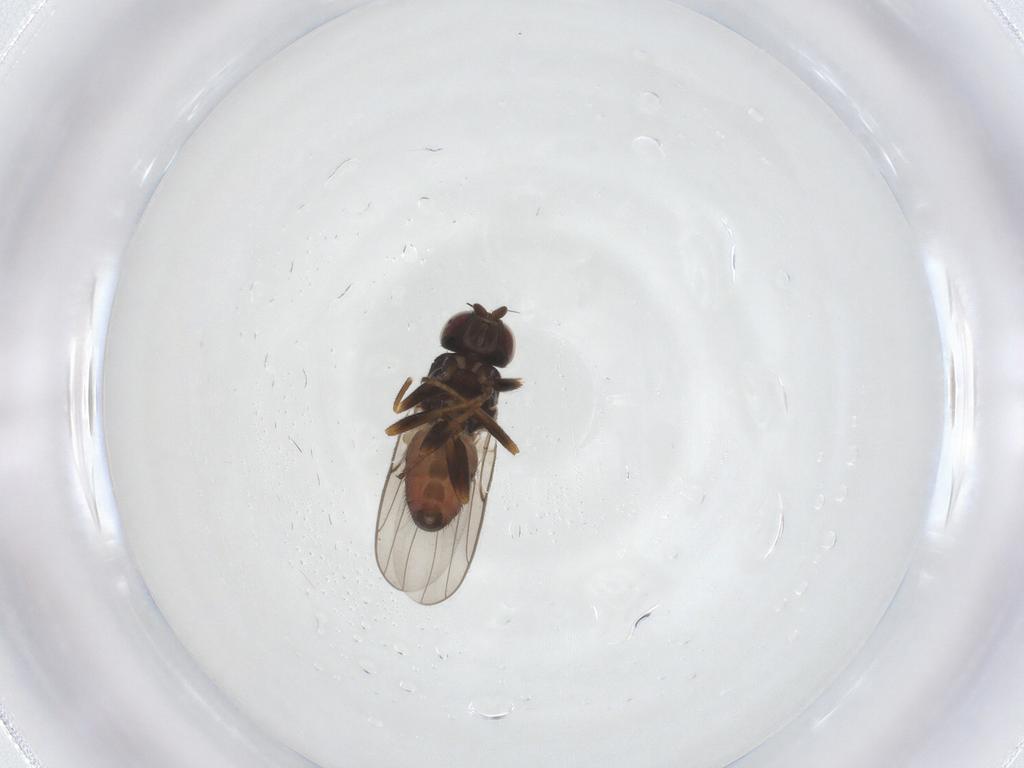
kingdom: Animalia
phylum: Arthropoda
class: Insecta
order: Diptera
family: Chloropidae
